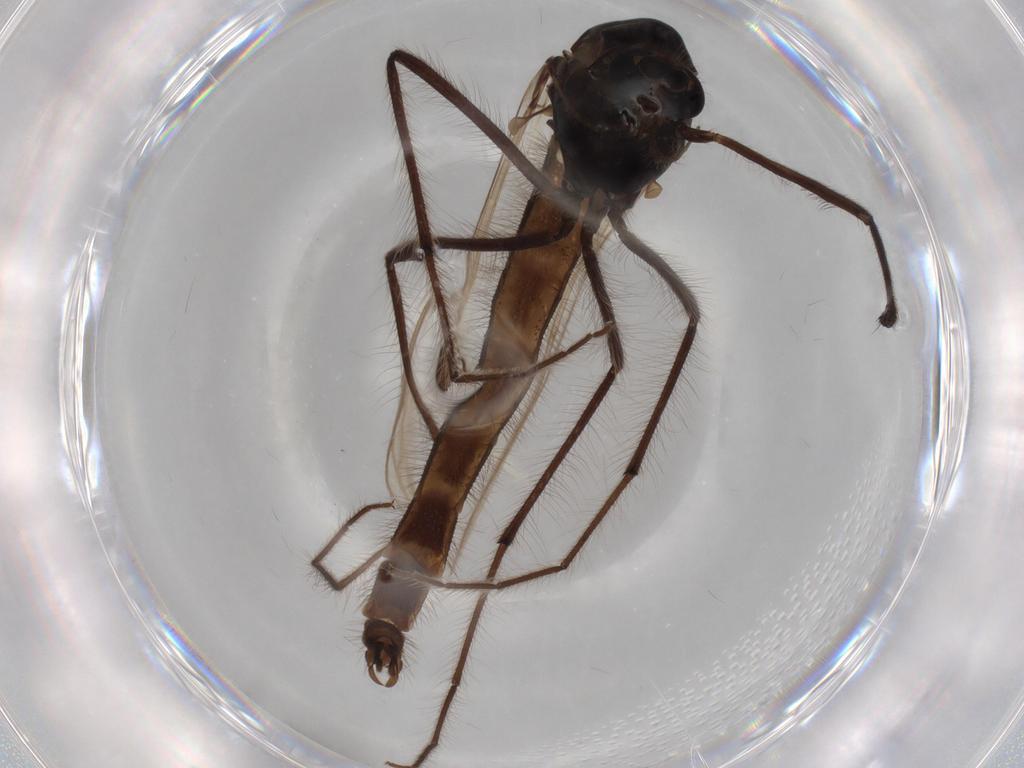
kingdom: Animalia
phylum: Arthropoda
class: Insecta
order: Diptera
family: Chironomidae
